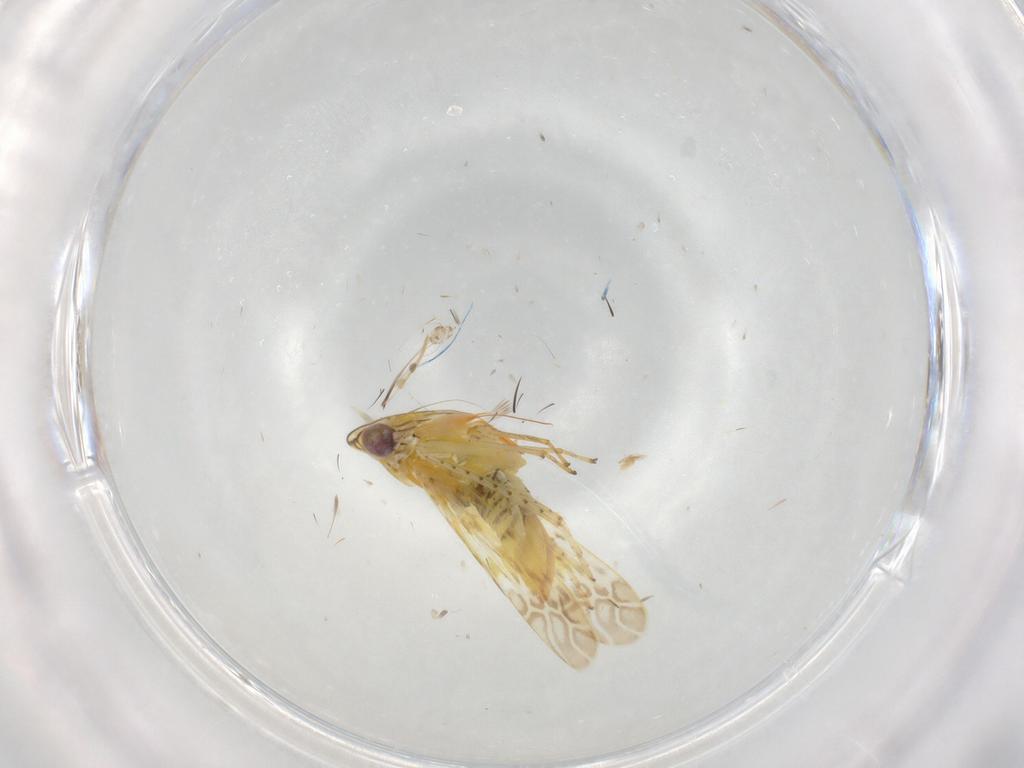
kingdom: Animalia
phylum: Arthropoda
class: Insecta
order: Hemiptera
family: Cicadellidae
